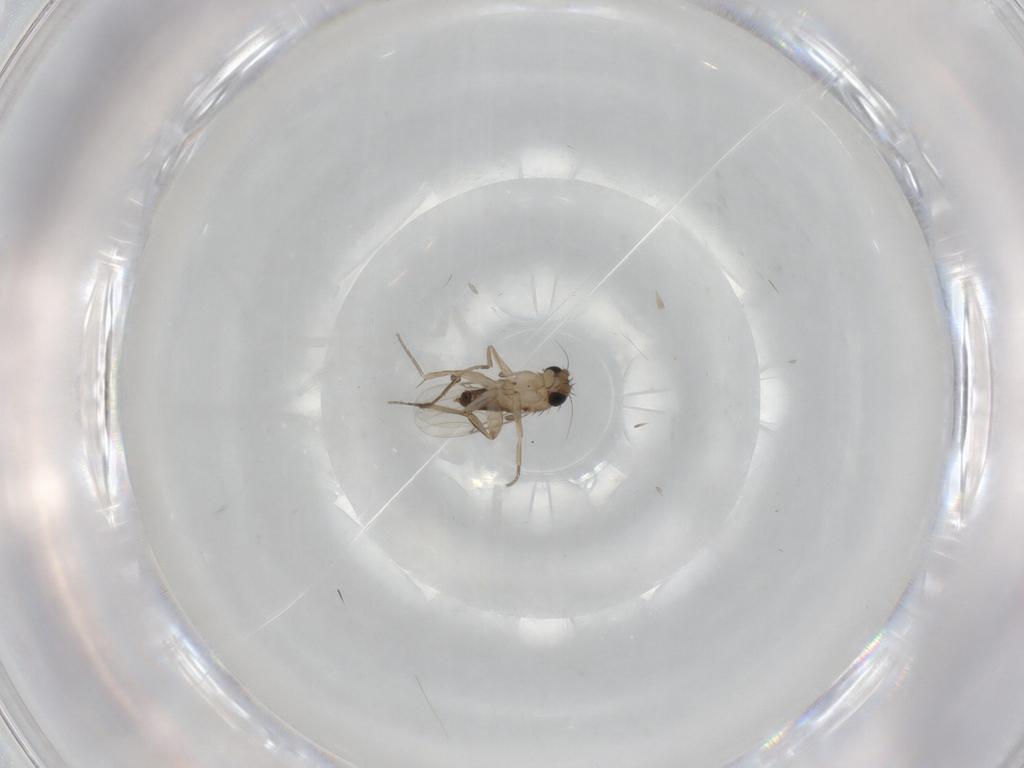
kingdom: Animalia
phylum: Arthropoda
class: Insecta
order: Diptera
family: Phoridae
